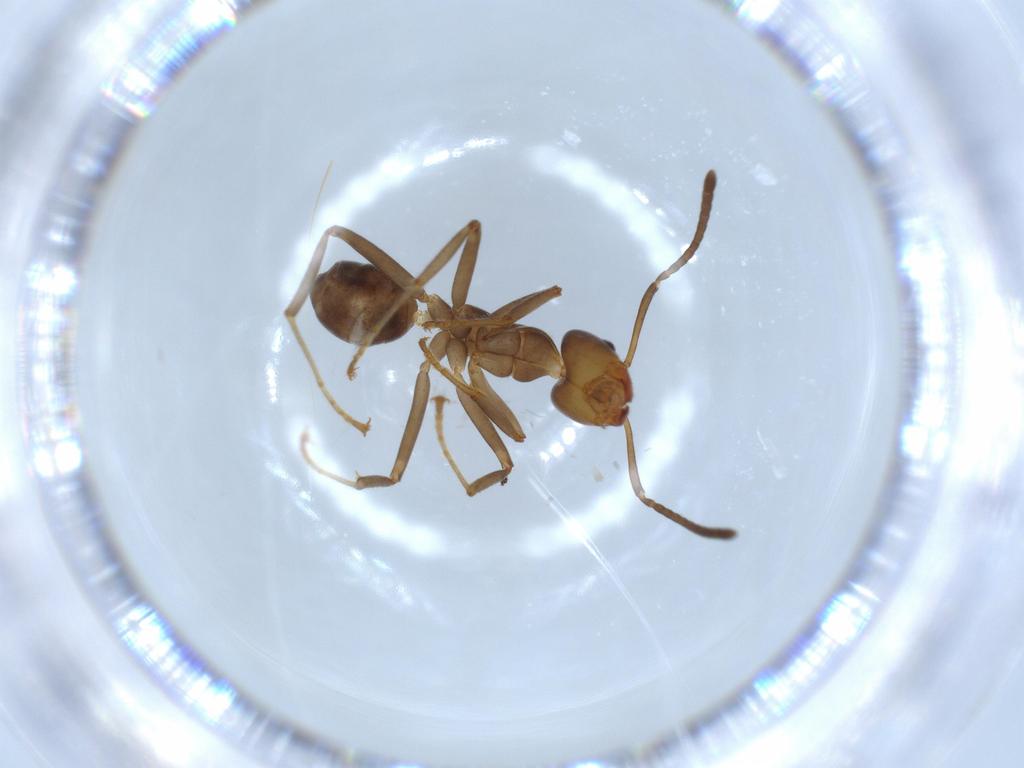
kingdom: Animalia
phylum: Arthropoda
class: Insecta
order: Hymenoptera
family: Formicidae
